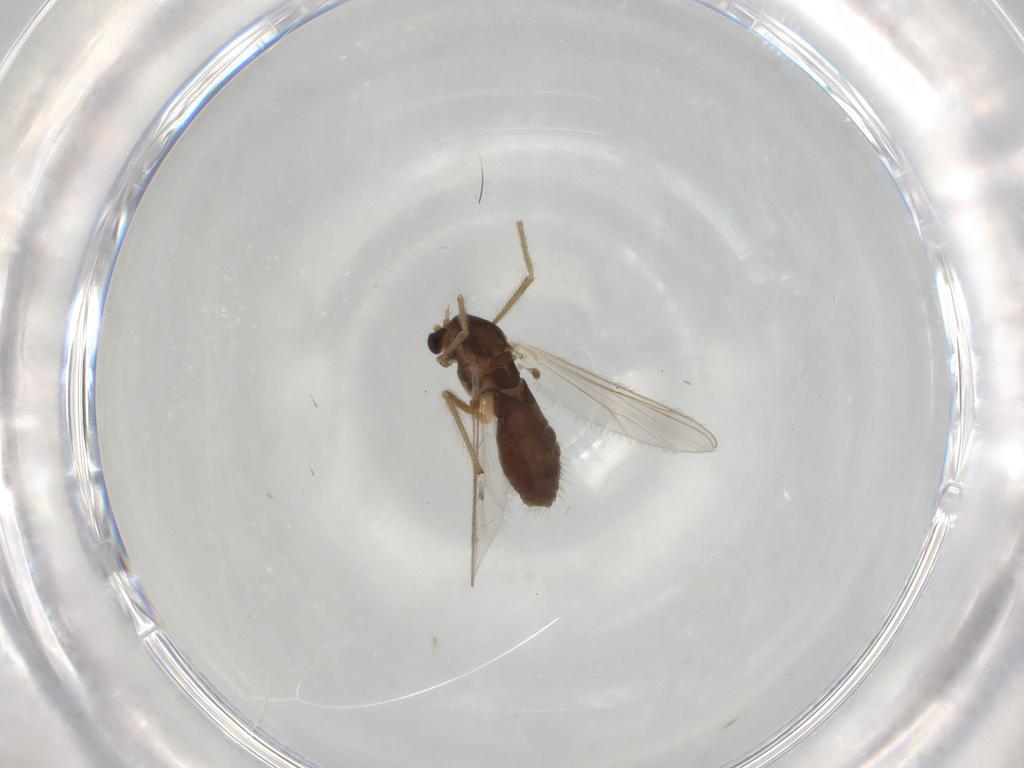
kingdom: Animalia
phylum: Arthropoda
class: Insecta
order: Diptera
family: Chironomidae
